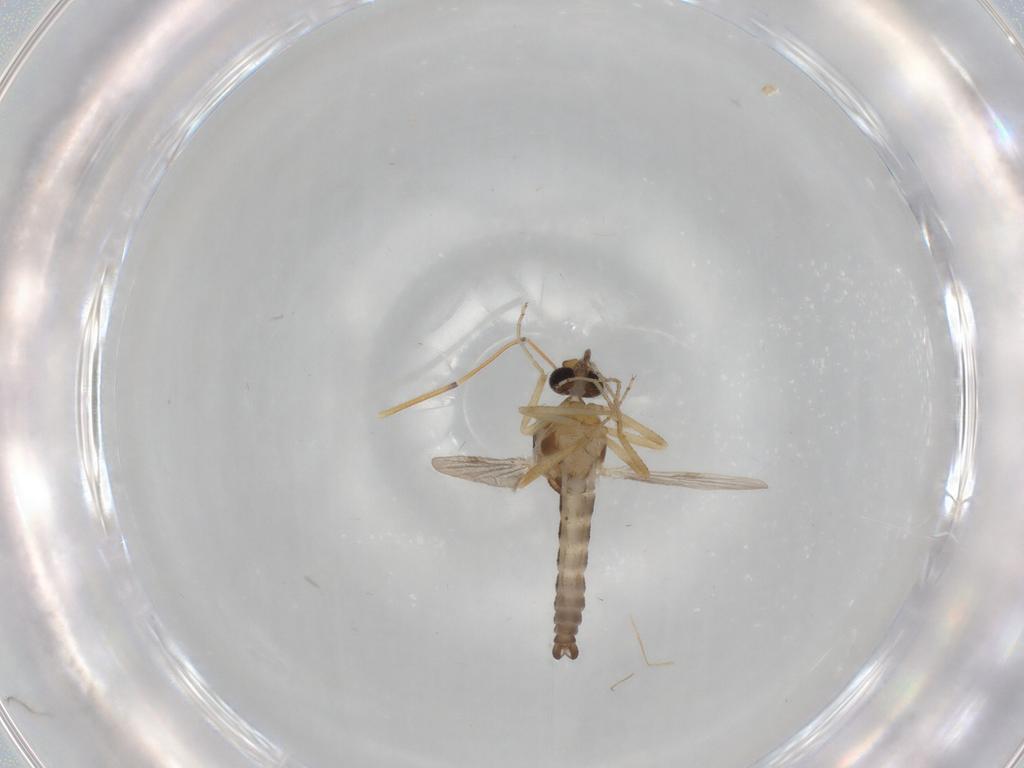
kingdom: Animalia
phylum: Arthropoda
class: Insecta
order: Diptera
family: Ceratopogonidae
